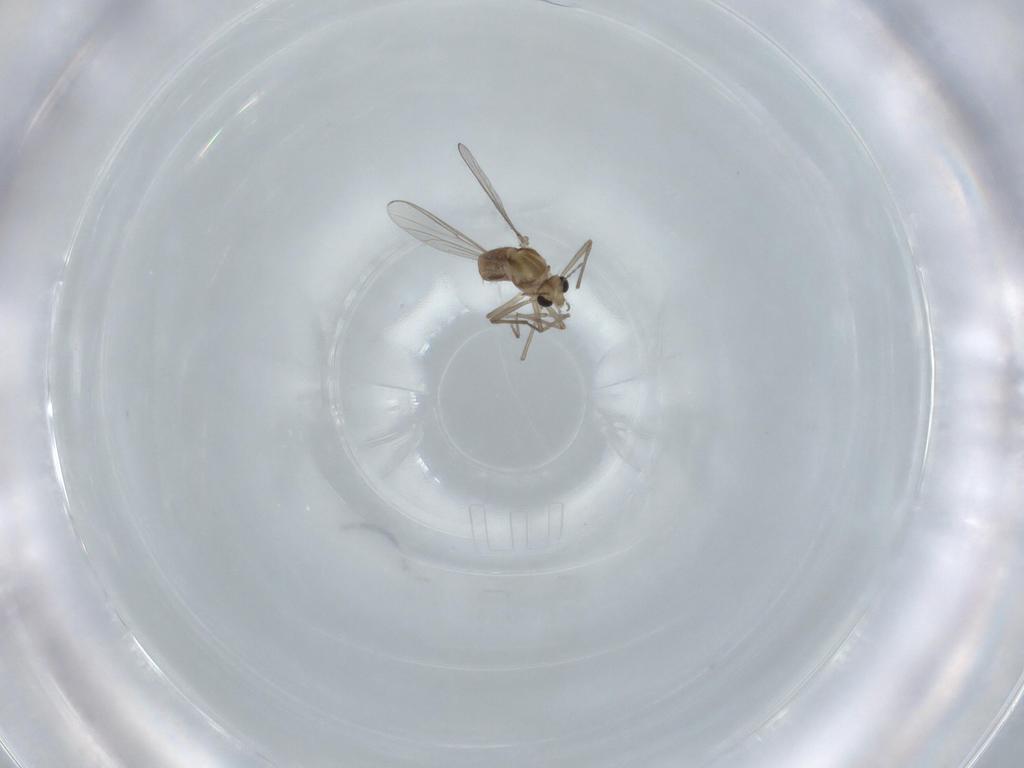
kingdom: Animalia
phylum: Arthropoda
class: Insecta
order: Diptera
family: Chironomidae
